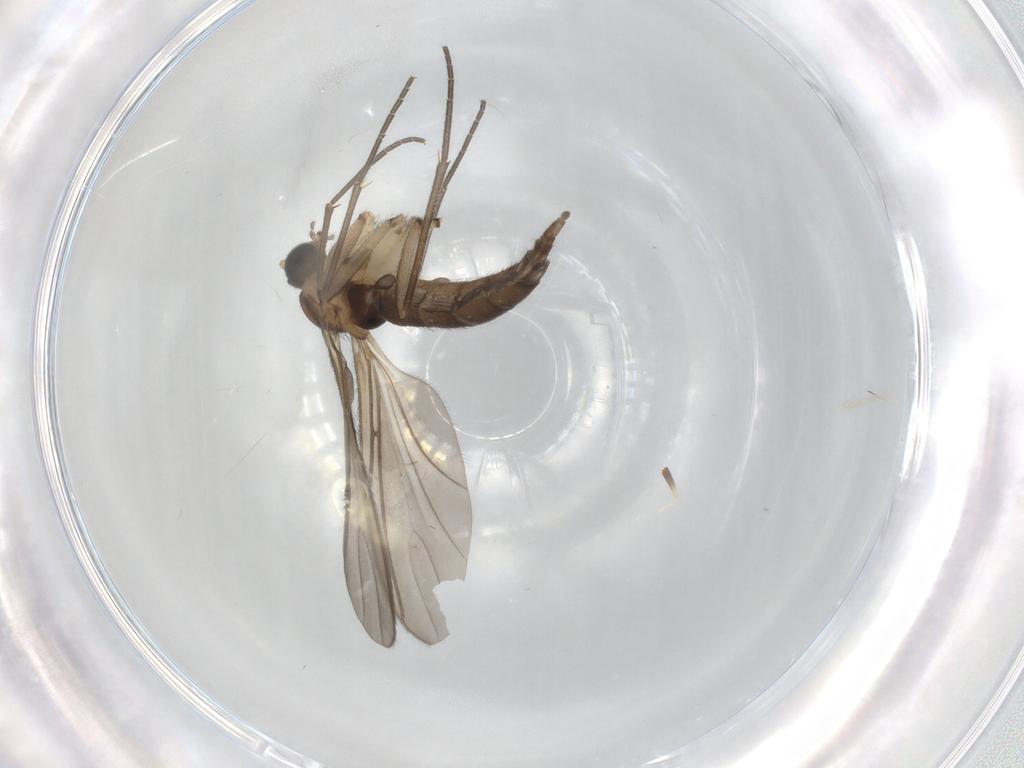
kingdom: Animalia
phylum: Arthropoda
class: Insecta
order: Diptera
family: Sciaridae
